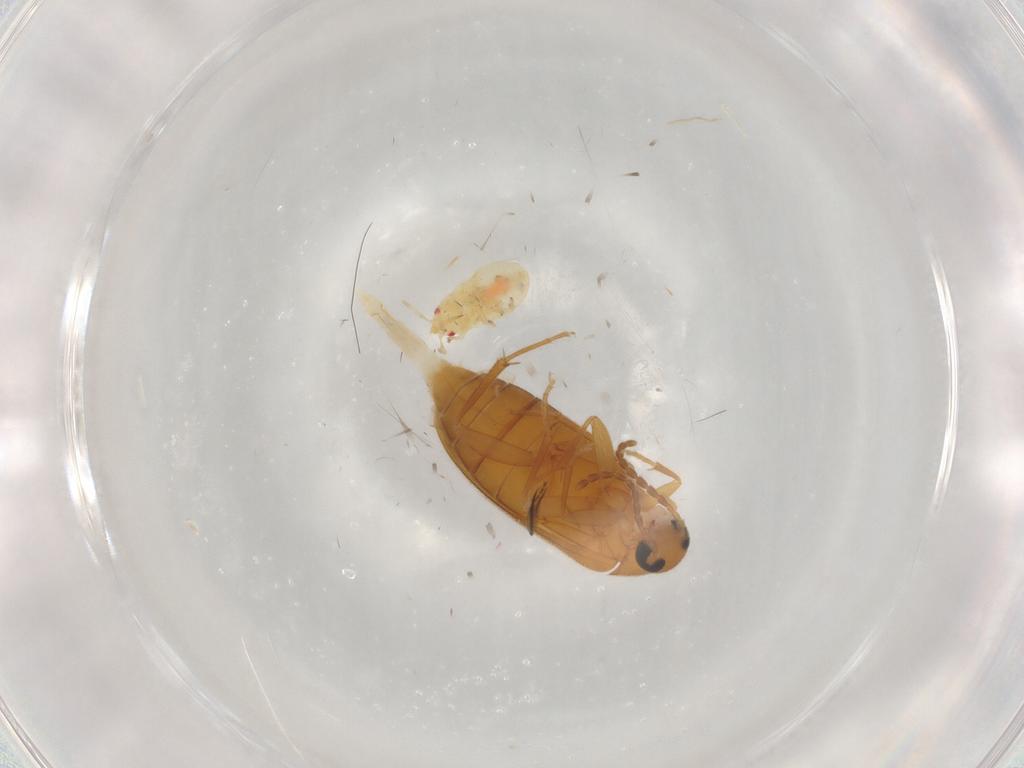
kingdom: Animalia
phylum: Arthropoda
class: Insecta
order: Coleoptera
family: Scraptiidae
